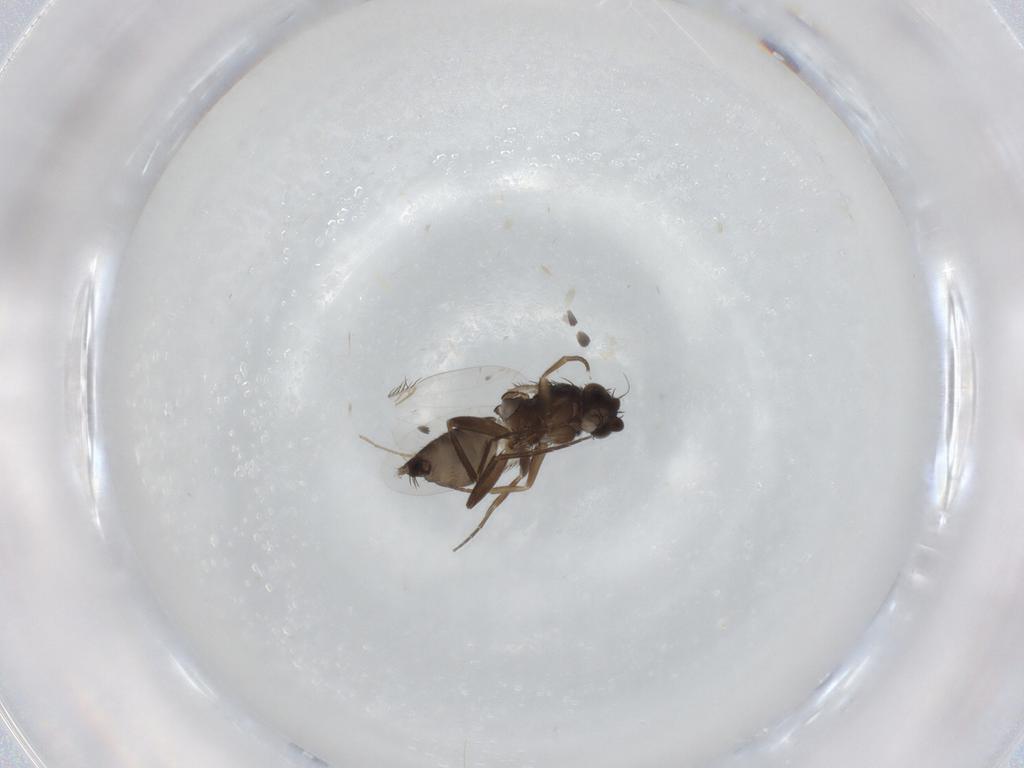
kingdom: Animalia
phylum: Arthropoda
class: Insecta
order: Diptera
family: Phoridae
